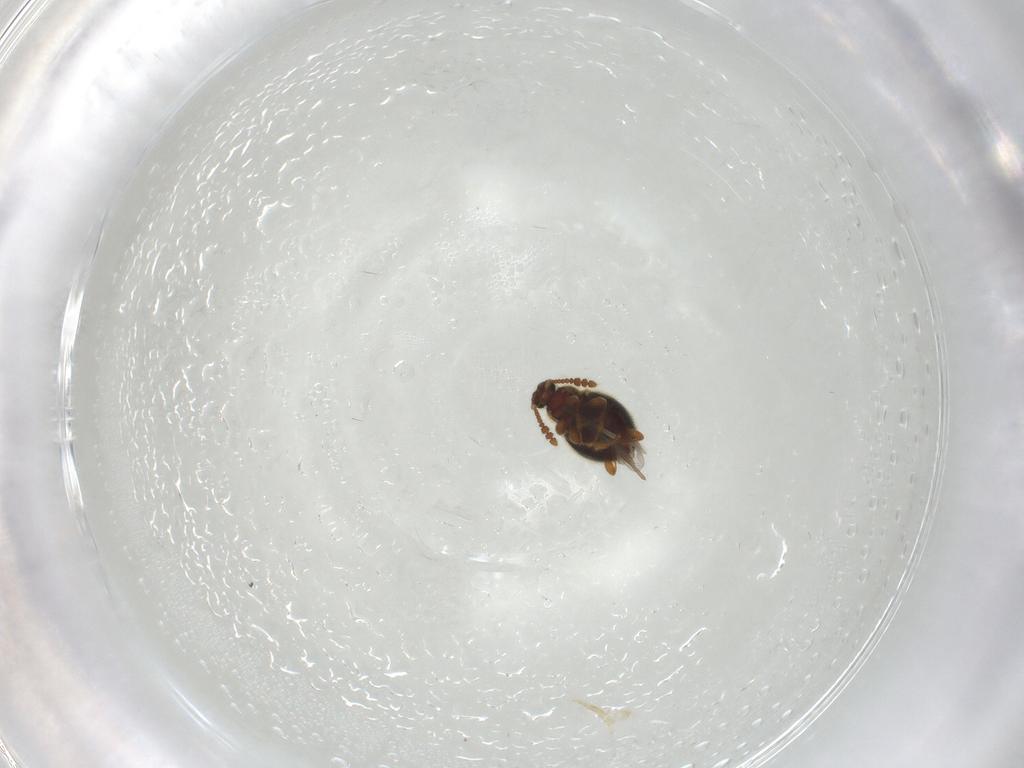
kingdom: Animalia
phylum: Arthropoda
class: Insecta
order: Coleoptera
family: Staphylinidae
